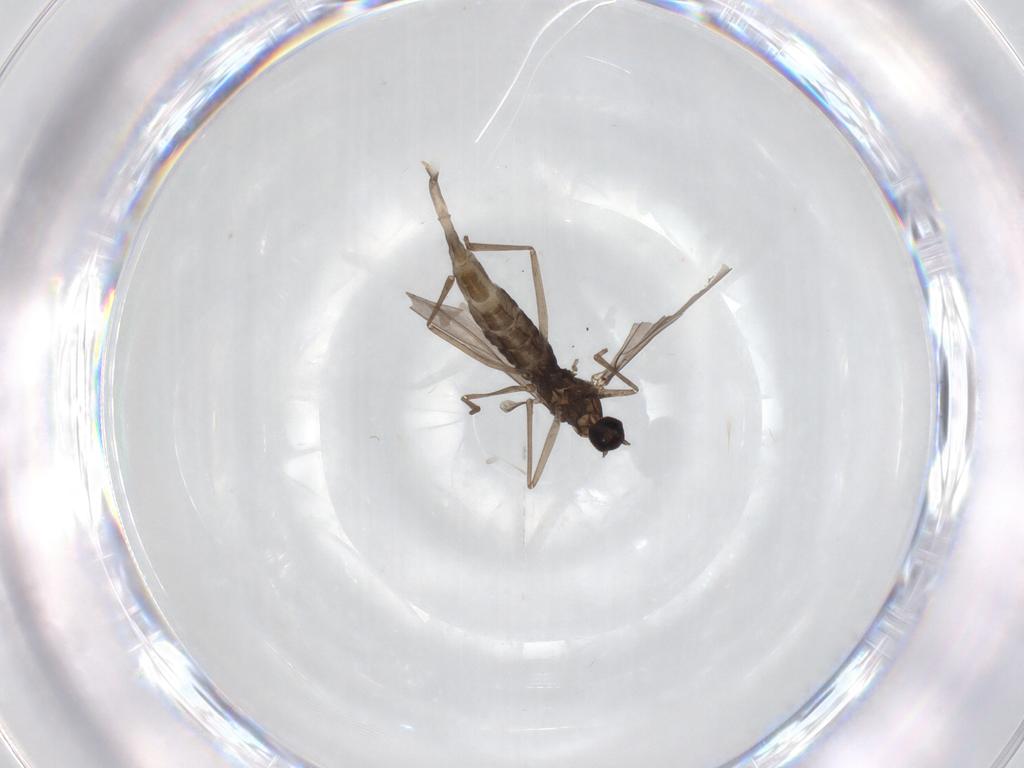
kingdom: Animalia
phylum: Arthropoda
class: Insecta
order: Diptera
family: Cecidomyiidae
